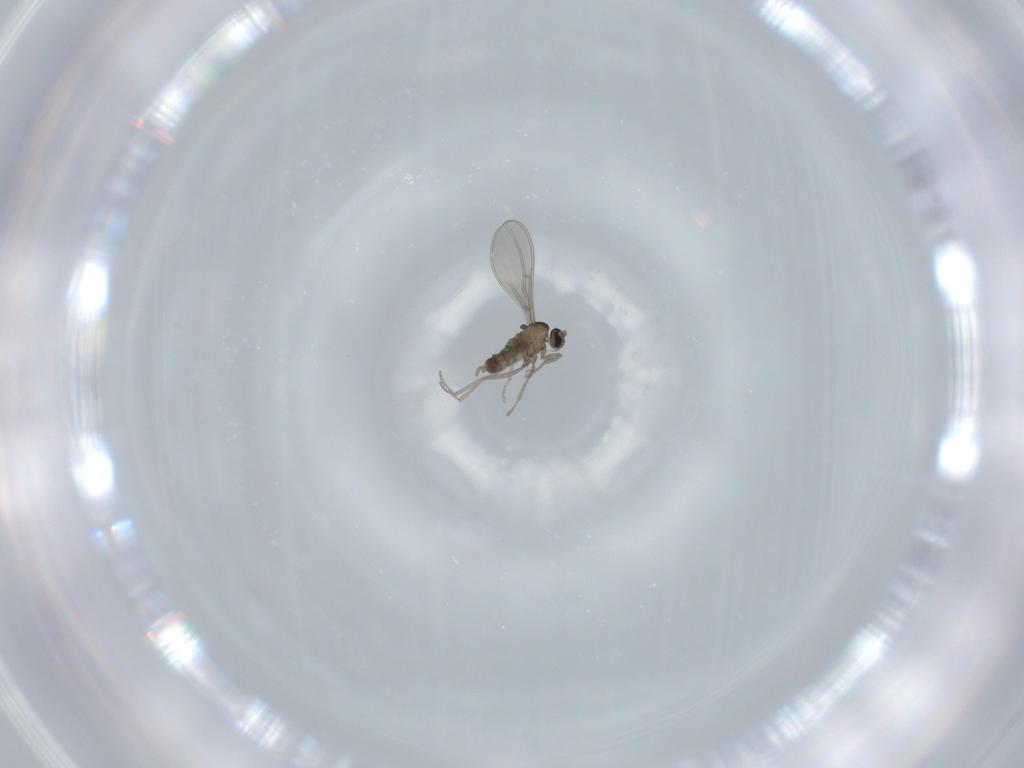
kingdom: Animalia
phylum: Arthropoda
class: Insecta
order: Diptera
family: Cecidomyiidae
